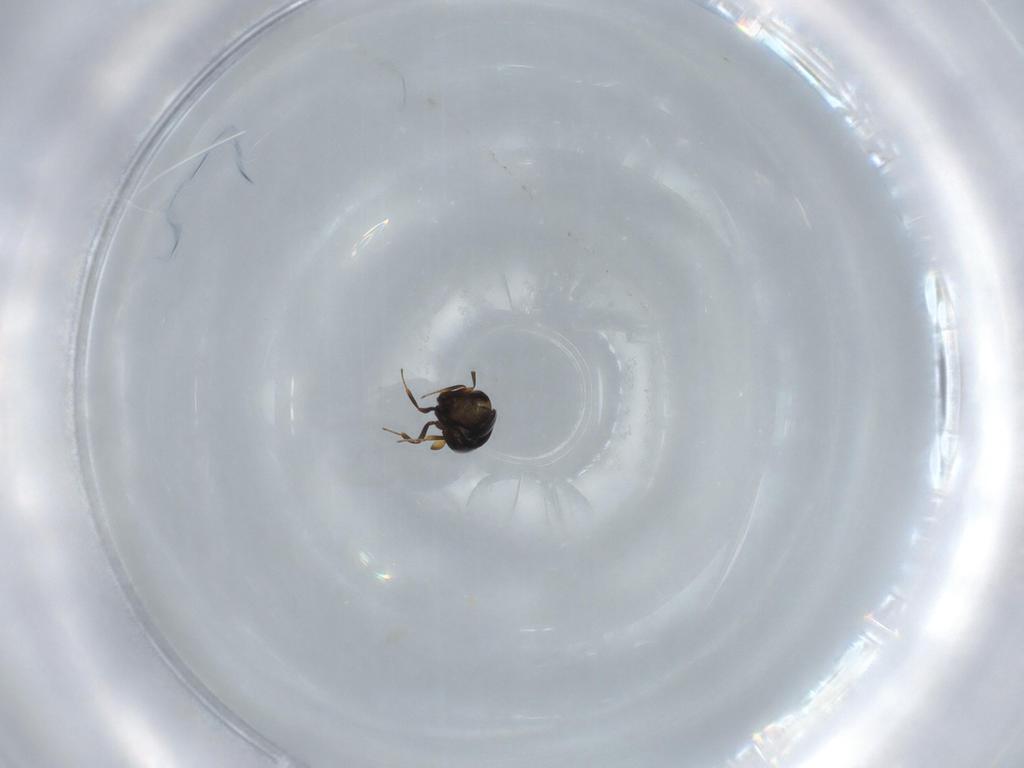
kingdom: Animalia
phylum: Arthropoda
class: Insecta
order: Hymenoptera
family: Scelionidae
